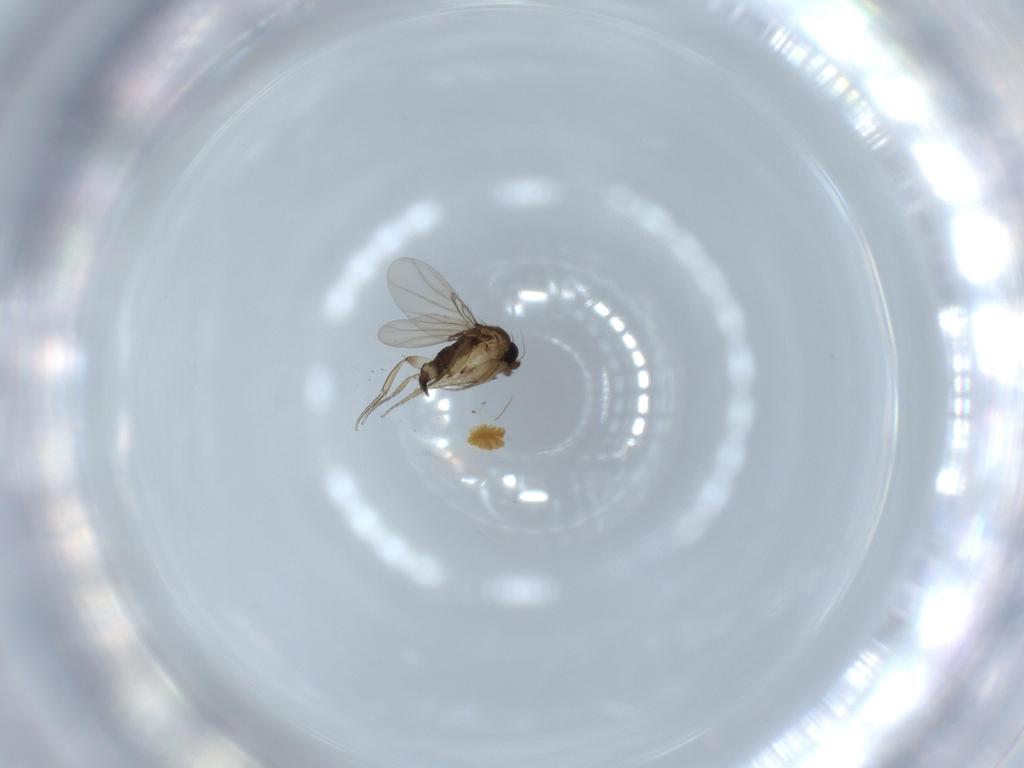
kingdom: Animalia
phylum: Arthropoda
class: Insecta
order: Diptera
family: Phoridae
